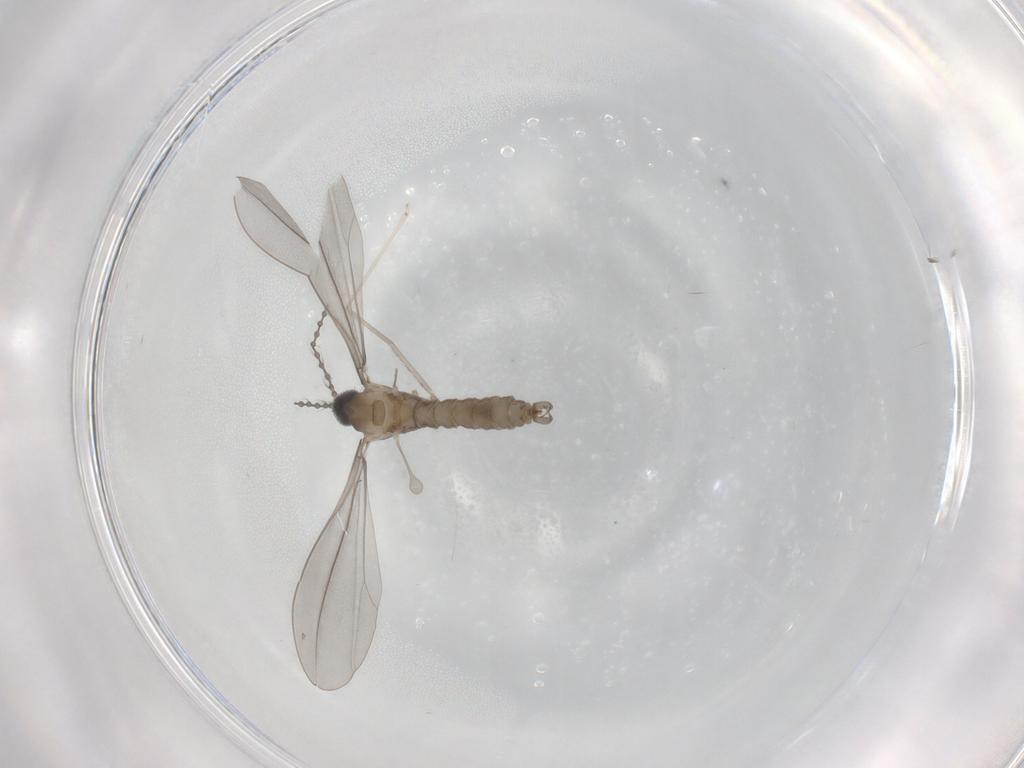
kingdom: Animalia
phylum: Arthropoda
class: Insecta
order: Diptera
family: Cecidomyiidae
